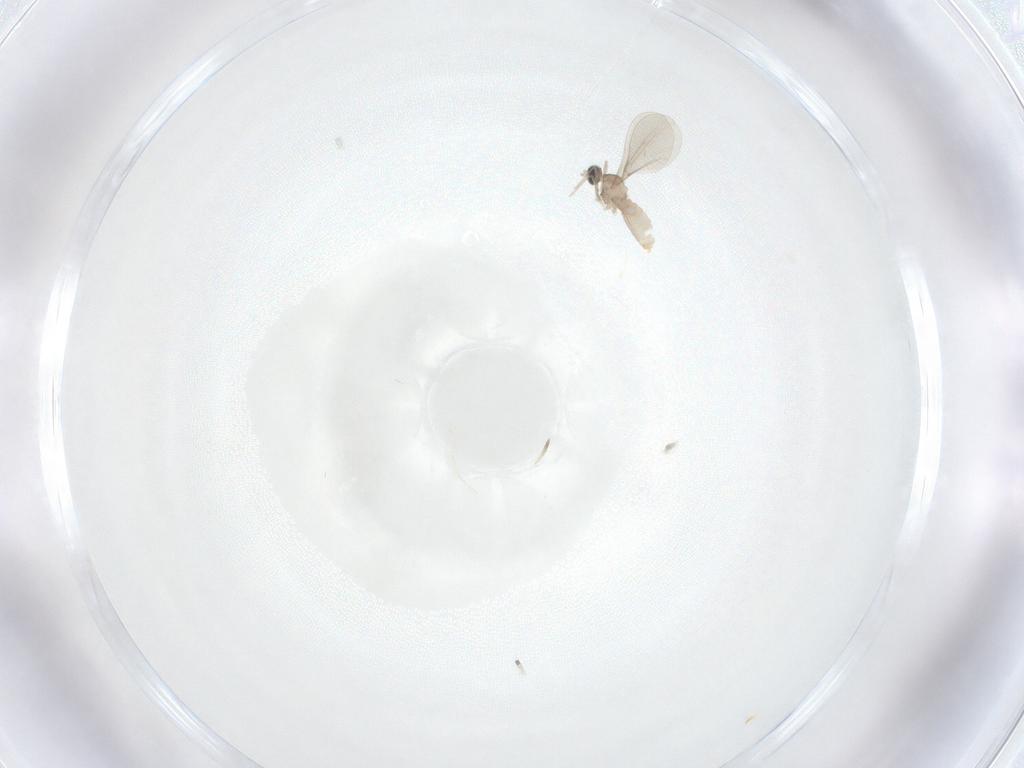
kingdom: Animalia
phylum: Arthropoda
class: Insecta
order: Diptera
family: Cecidomyiidae
